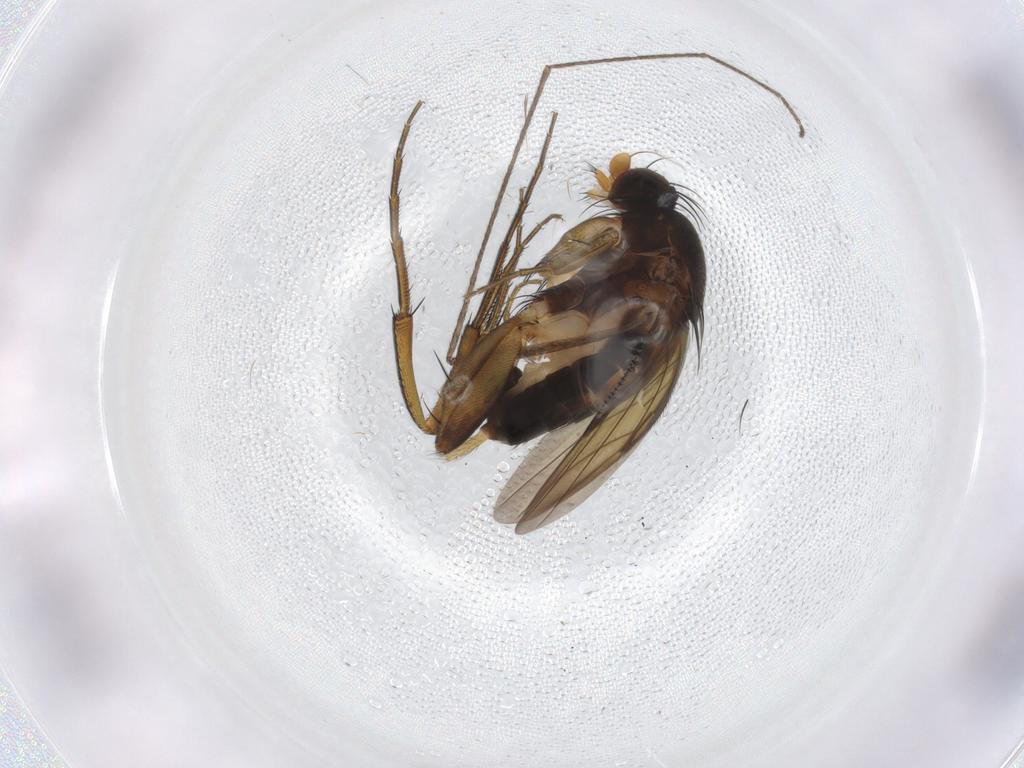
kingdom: Animalia
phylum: Arthropoda
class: Insecta
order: Diptera
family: Phoridae
